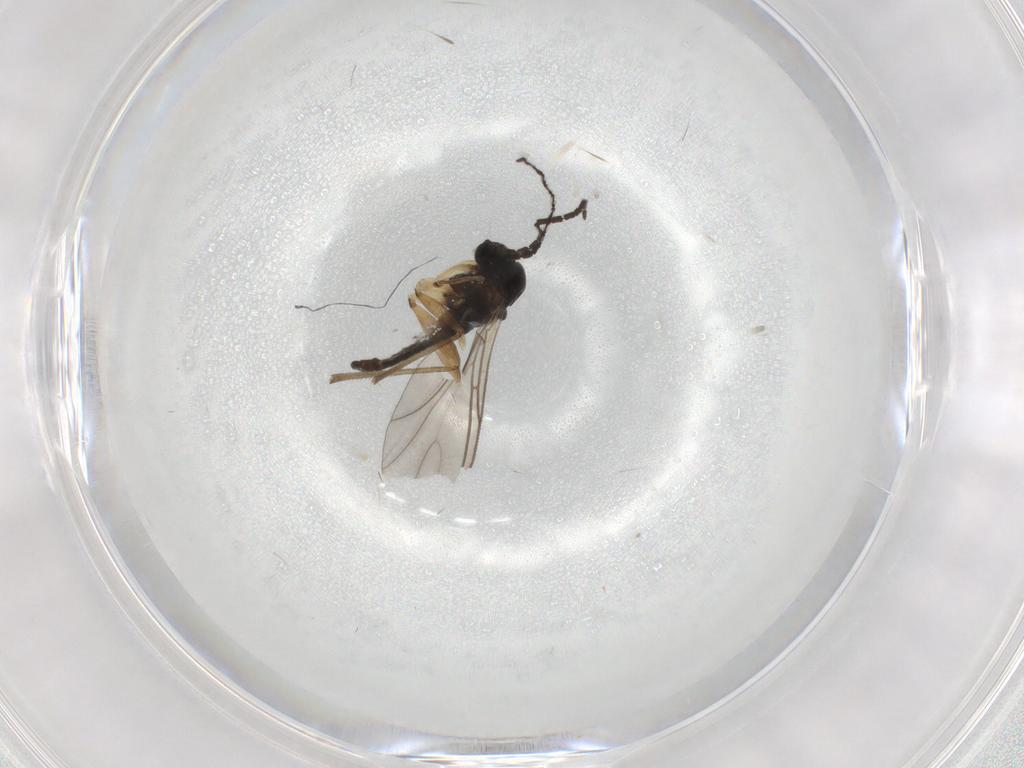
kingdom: Animalia
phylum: Arthropoda
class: Insecta
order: Diptera
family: Sciaridae
